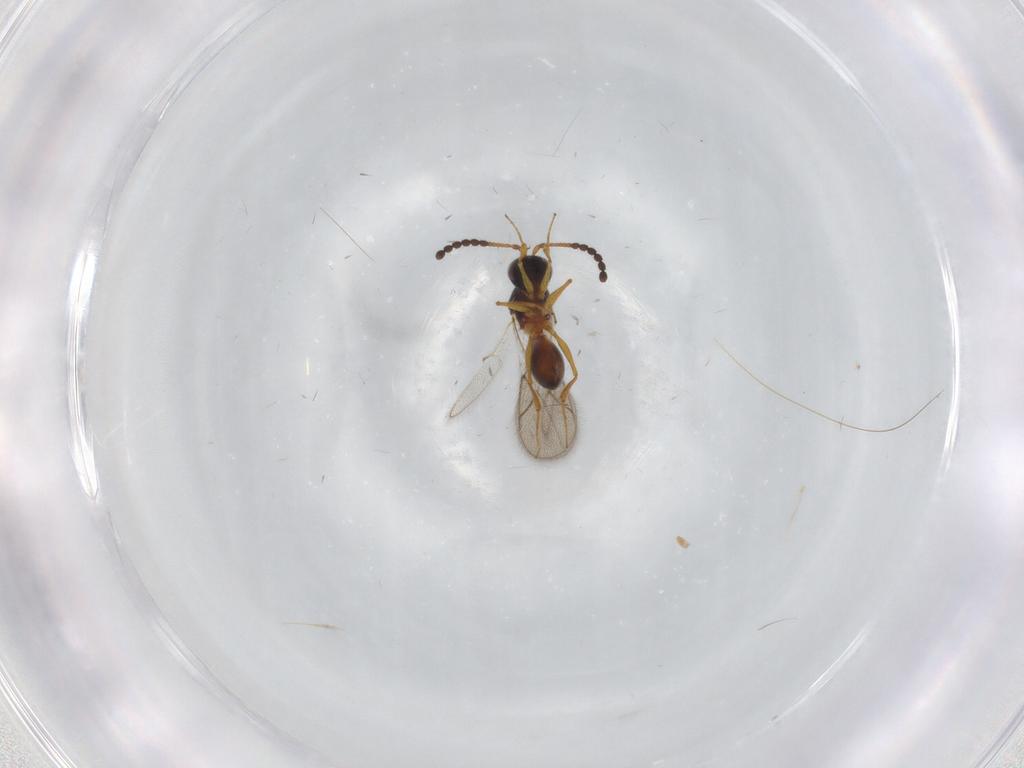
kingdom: Animalia
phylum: Arthropoda
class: Insecta
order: Hymenoptera
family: Figitidae
